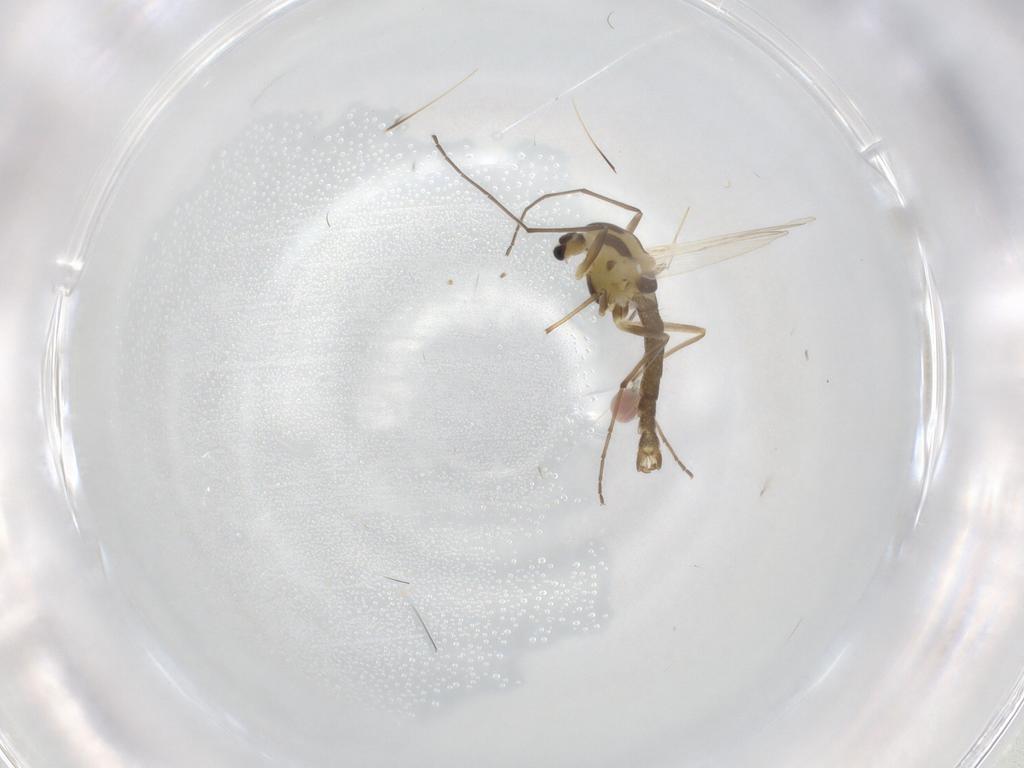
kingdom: Animalia
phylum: Arthropoda
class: Insecta
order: Diptera
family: Chironomidae
